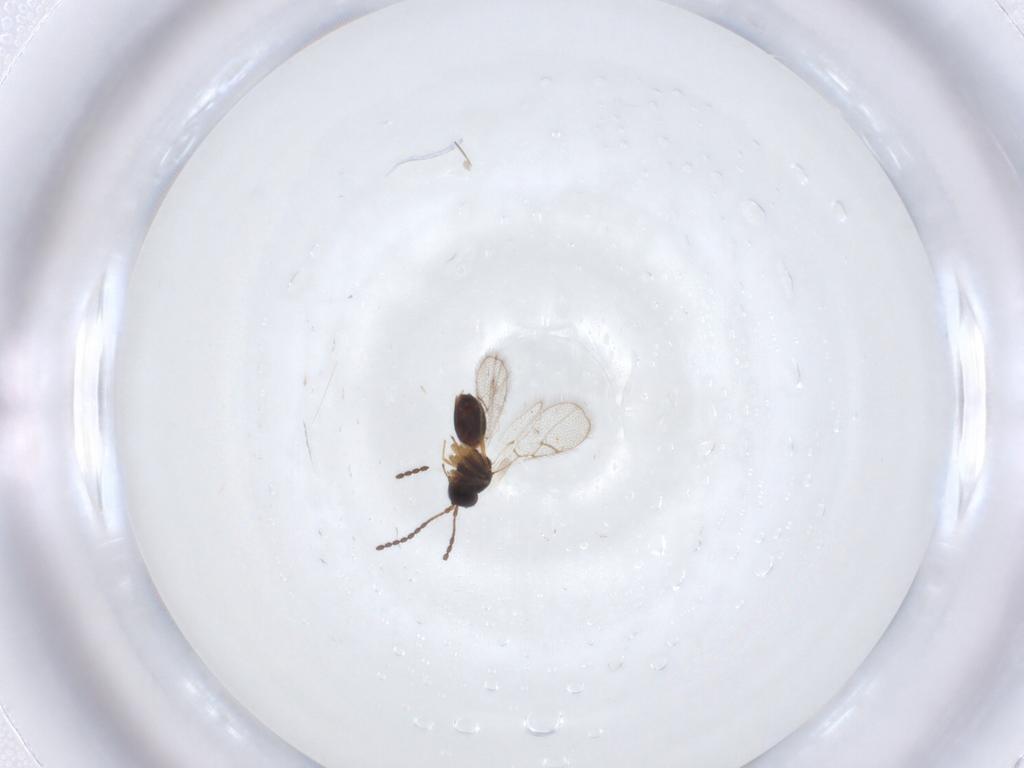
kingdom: Animalia
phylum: Arthropoda
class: Insecta
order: Hymenoptera
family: Figitidae
